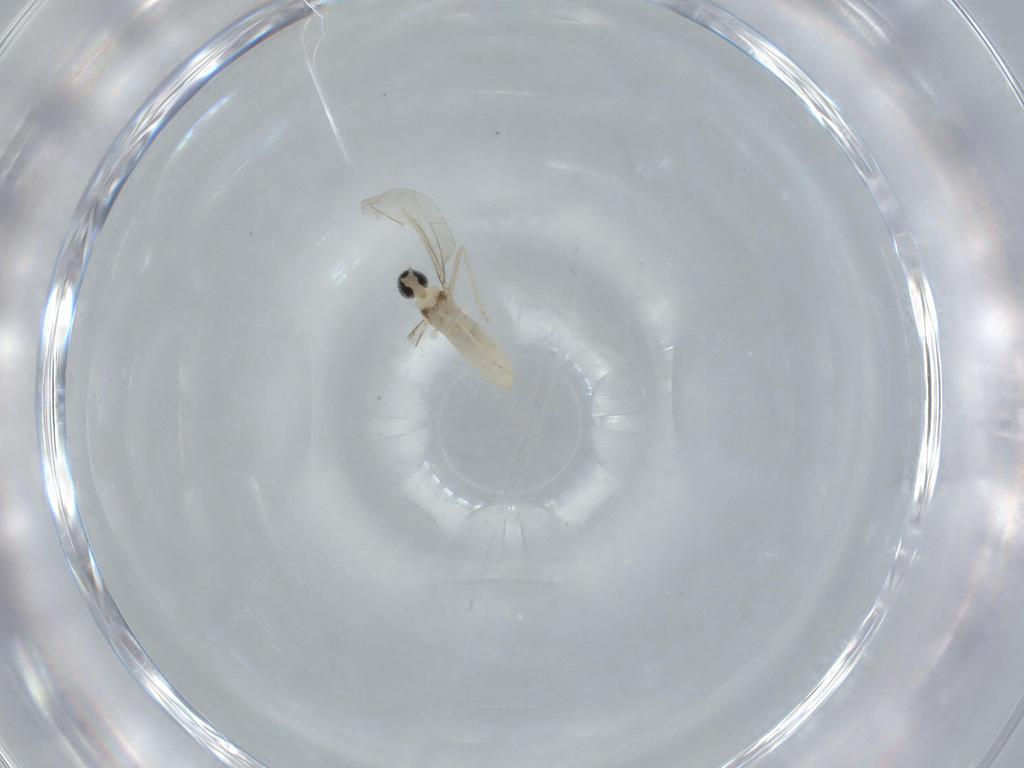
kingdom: Animalia
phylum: Arthropoda
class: Insecta
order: Diptera
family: Cecidomyiidae
